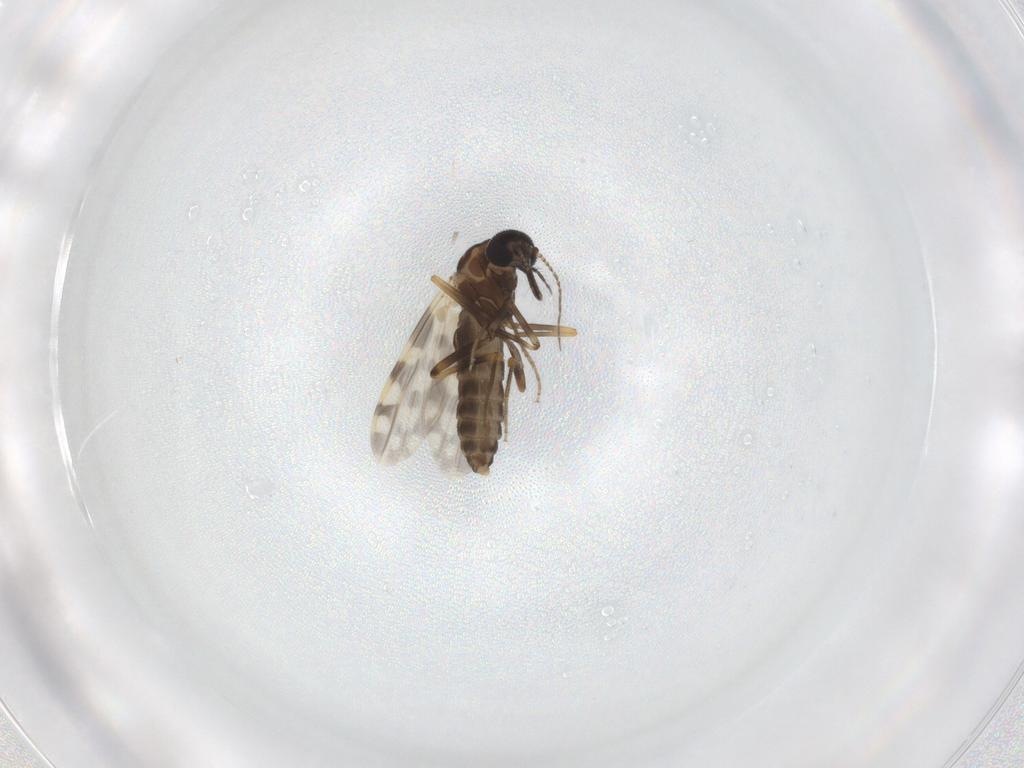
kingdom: Animalia
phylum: Arthropoda
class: Insecta
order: Diptera
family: Ceratopogonidae
